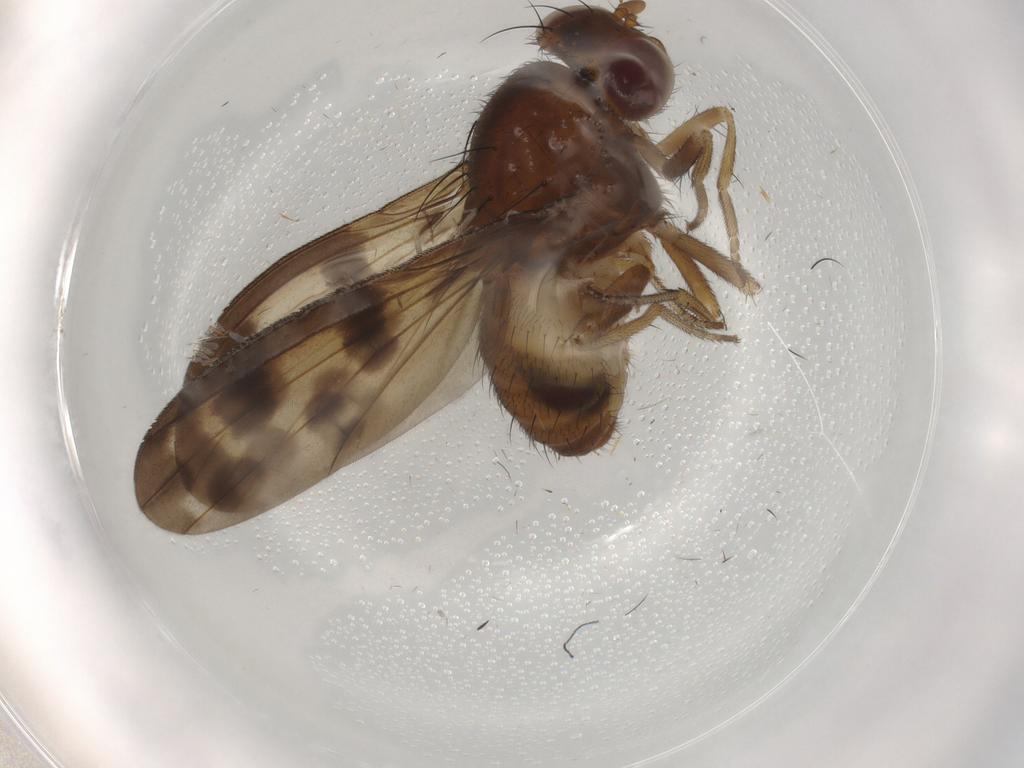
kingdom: Animalia
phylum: Arthropoda
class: Insecta
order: Diptera
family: Cecidomyiidae
